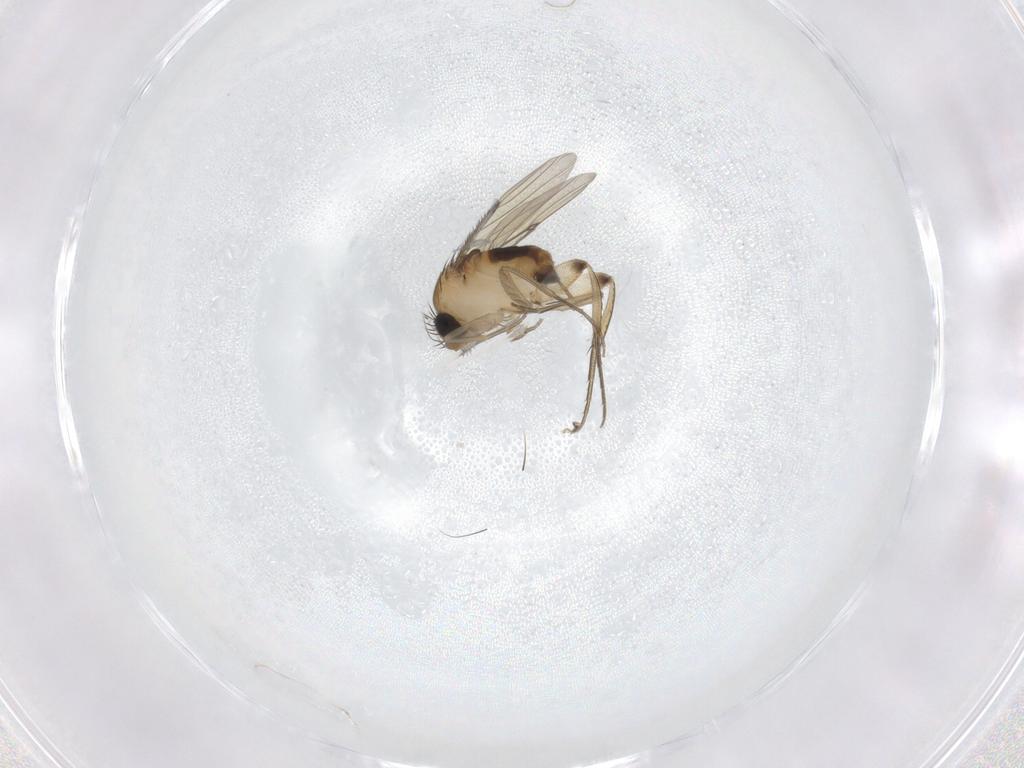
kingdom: Animalia
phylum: Arthropoda
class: Insecta
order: Diptera
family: Phoridae
